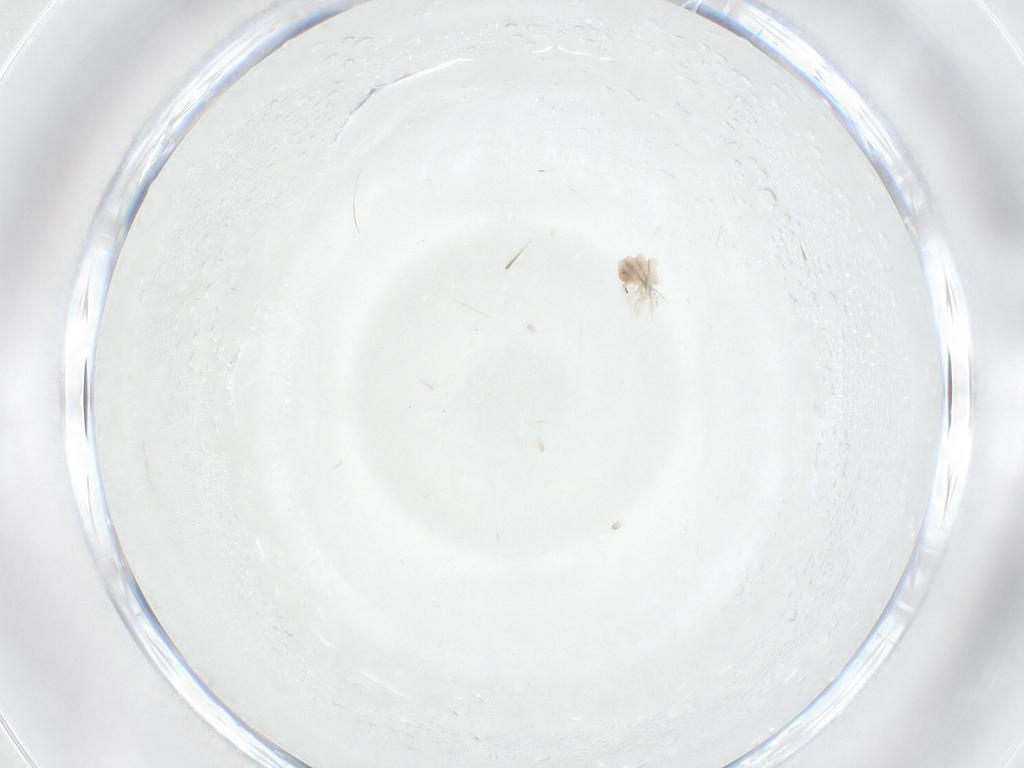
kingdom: Animalia
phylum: Arthropoda
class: Arachnida
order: Trombidiformes
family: Anystidae
